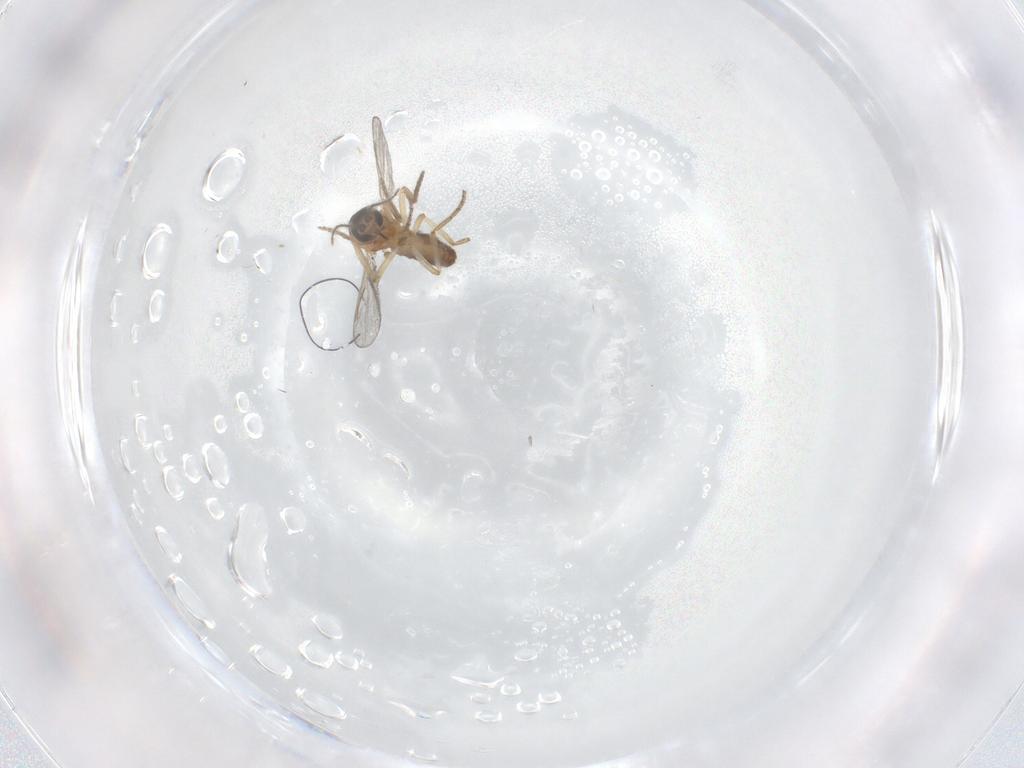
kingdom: Animalia
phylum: Arthropoda
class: Insecta
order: Diptera
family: Ceratopogonidae
